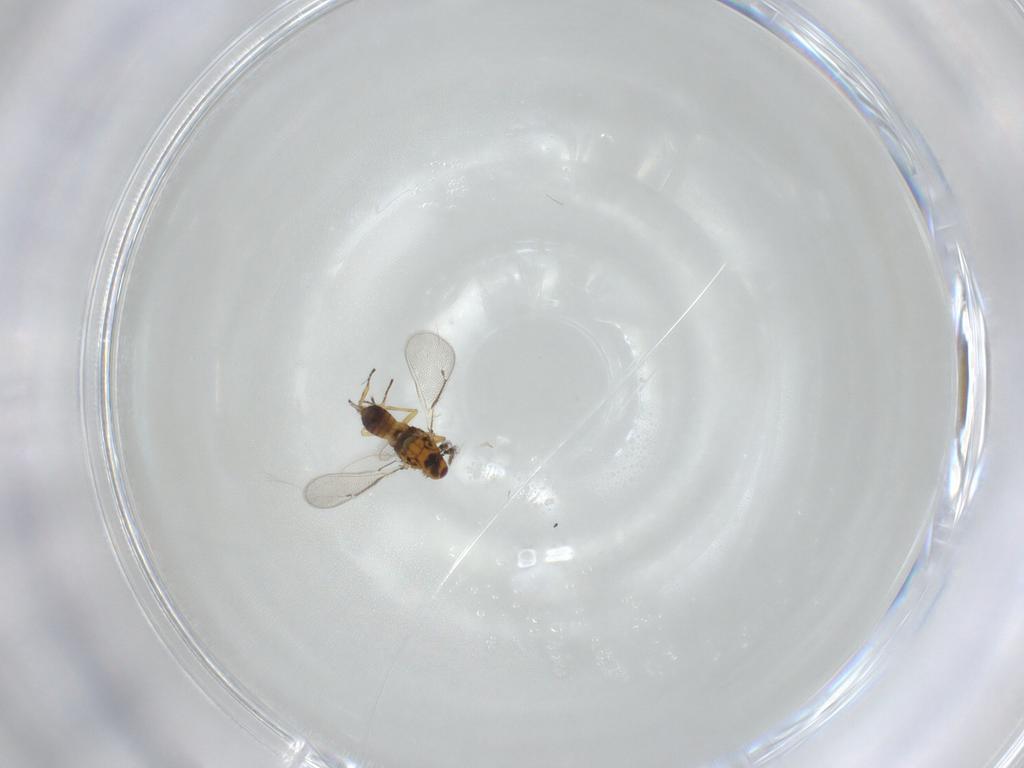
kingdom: Animalia
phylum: Arthropoda
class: Insecta
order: Hymenoptera
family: Eulophidae
